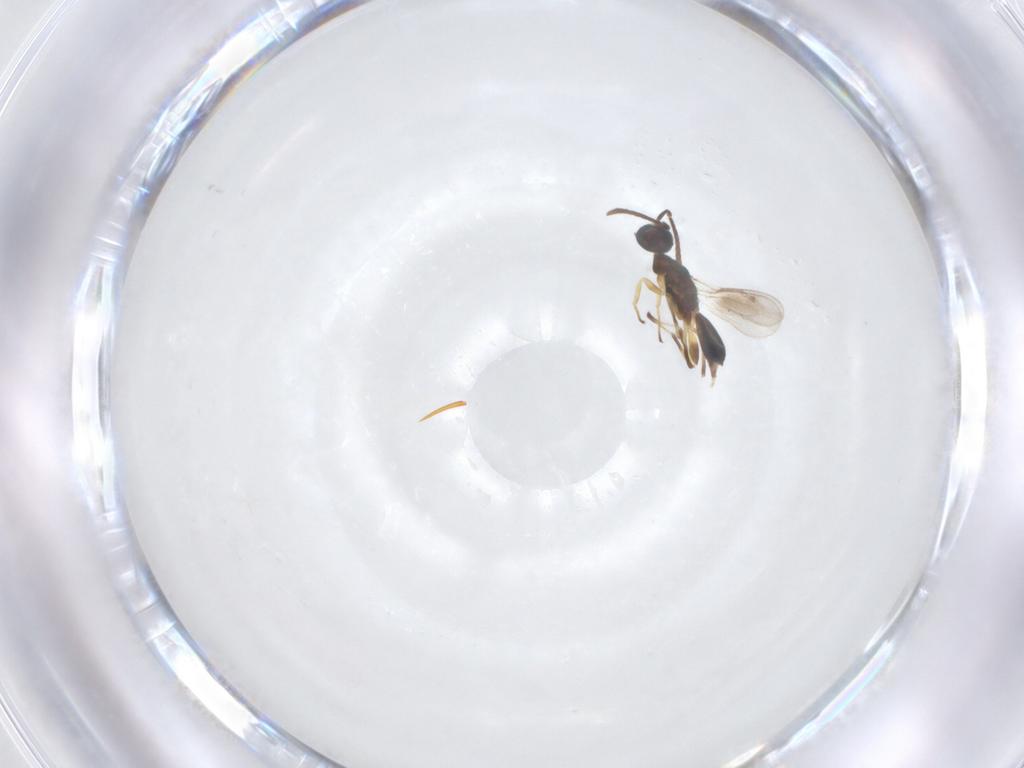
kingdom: Animalia
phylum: Arthropoda
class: Insecta
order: Hymenoptera
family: Eupelmidae
